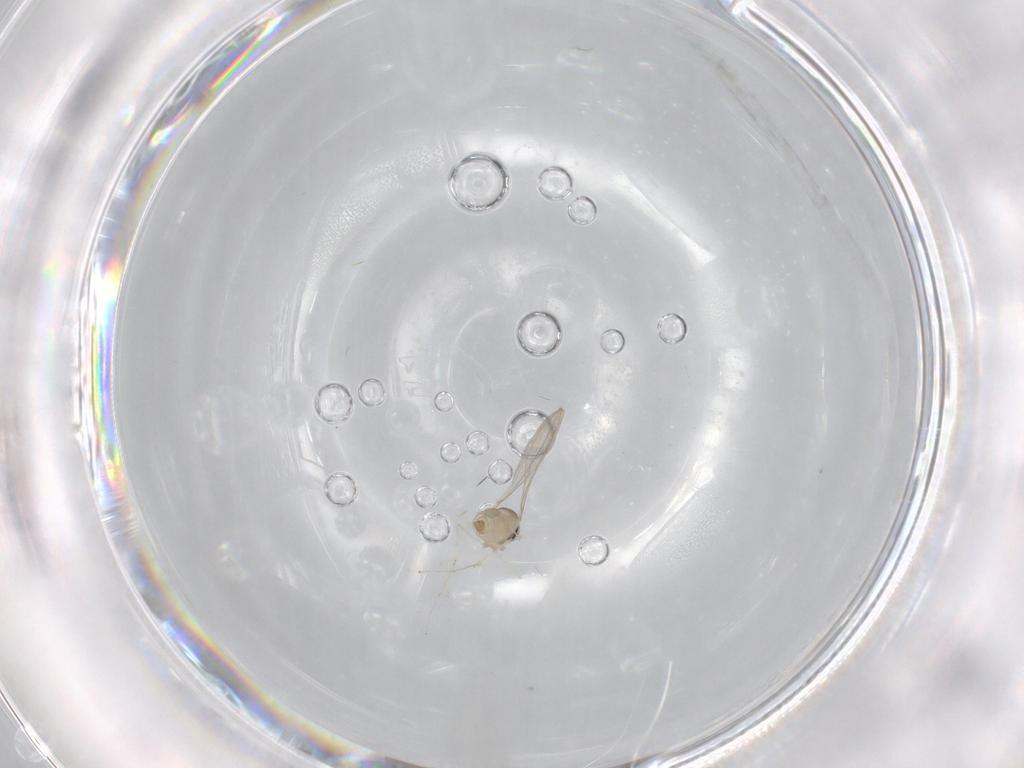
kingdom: Animalia
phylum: Arthropoda
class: Insecta
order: Diptera
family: Cecidomyiidae
